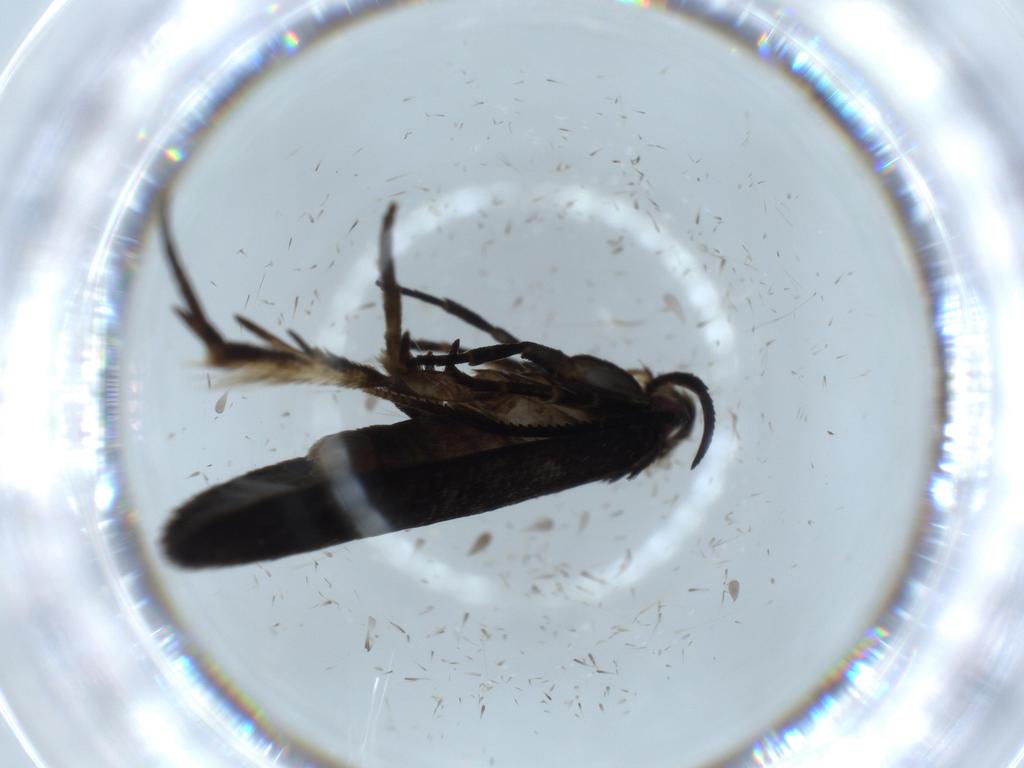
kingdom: Animalia
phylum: Arthropoda
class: Insecta
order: Lepidoptera
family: Cosmopterigidae
